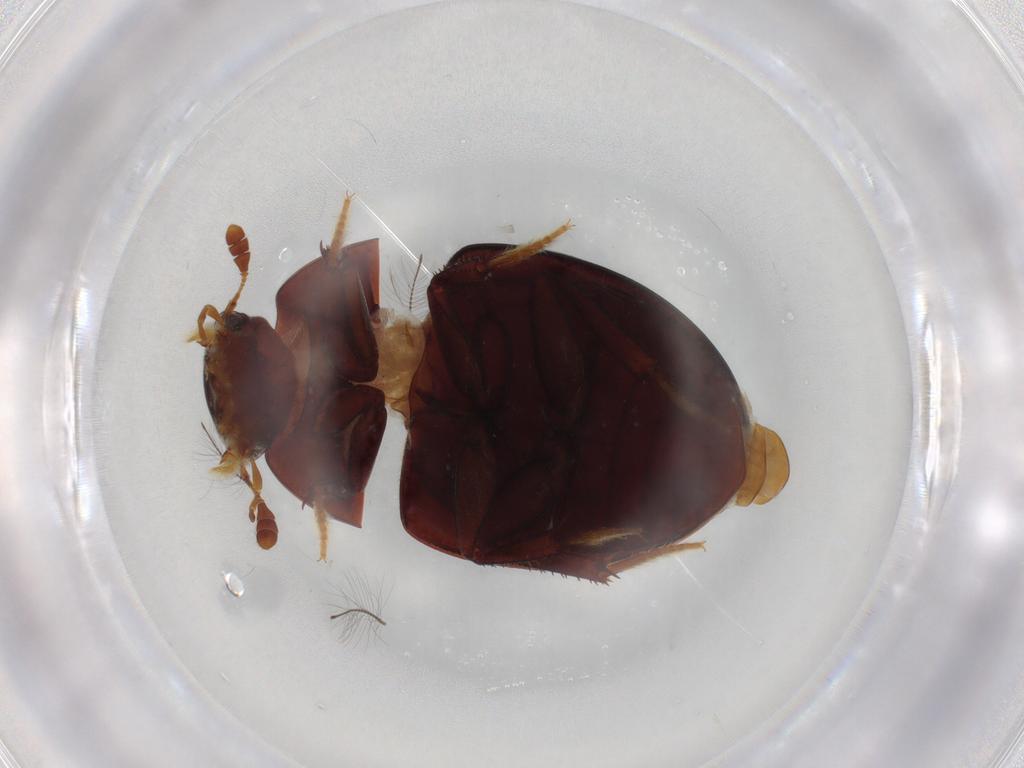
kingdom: Animalia
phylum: Arthropoda
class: Insecta
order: Coleoptera
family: Hydrophilidae
